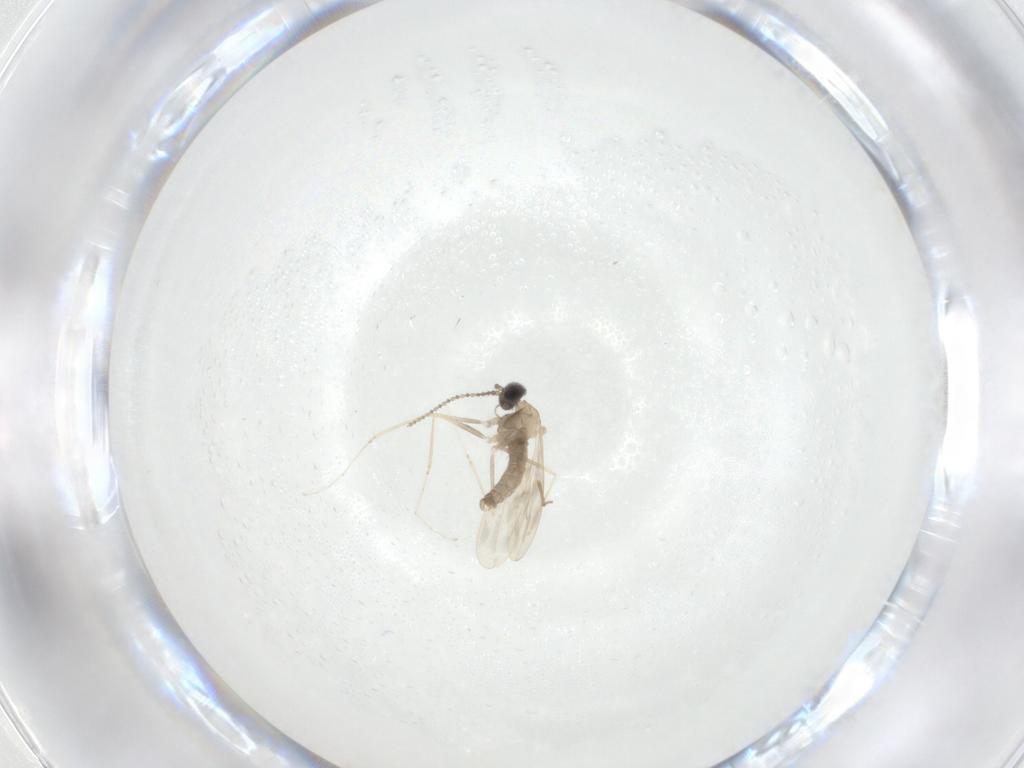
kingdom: Animalia
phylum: Arthropoda
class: Insecta
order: Diptera
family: Cecidomyiidae
